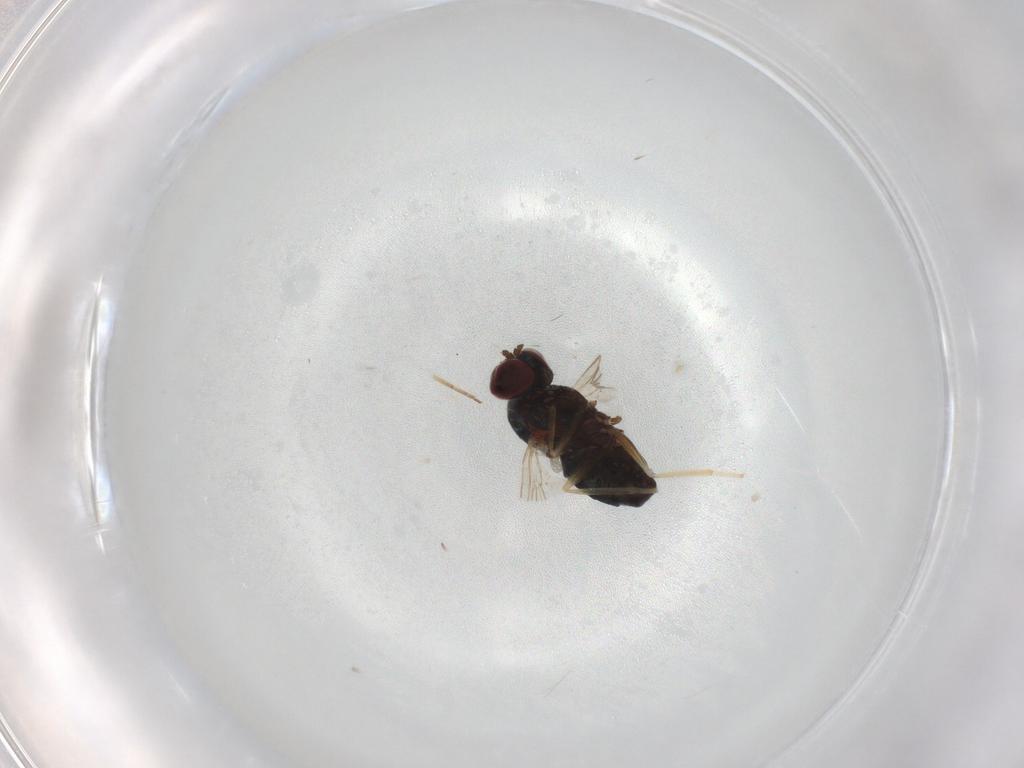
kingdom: Animalia
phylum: Arthropoda
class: Insecta
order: Diptera
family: Dolichopodidae
